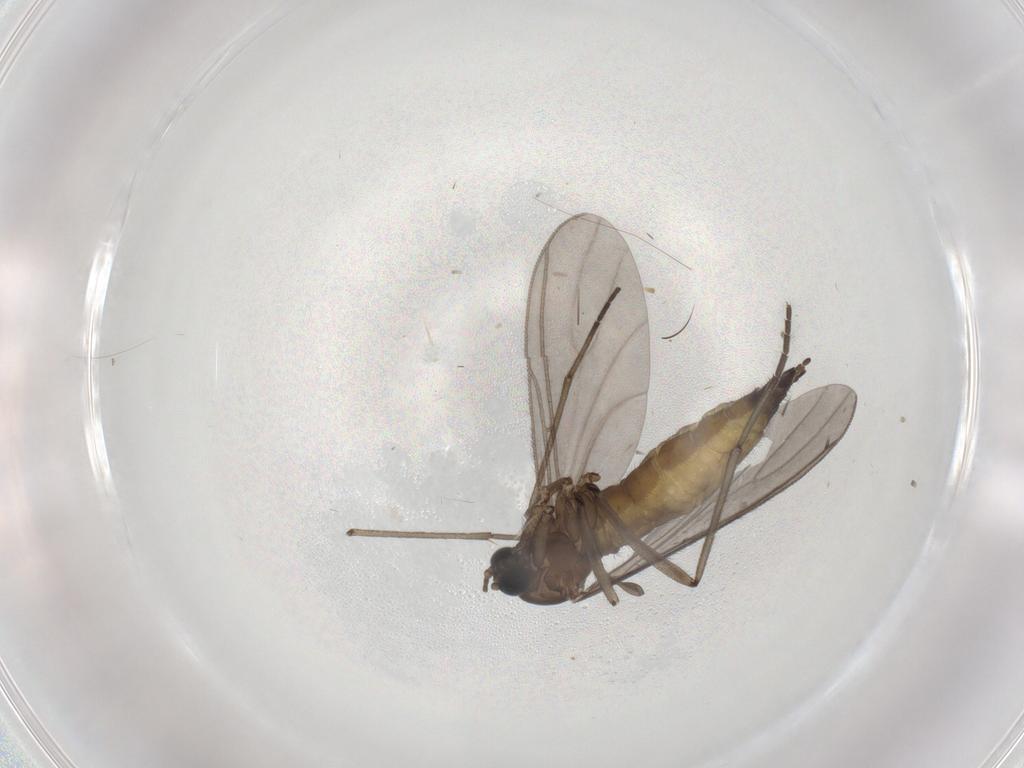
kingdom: Animalia
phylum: Arthropoda
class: Insecta
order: Diptera
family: Sciaridae
